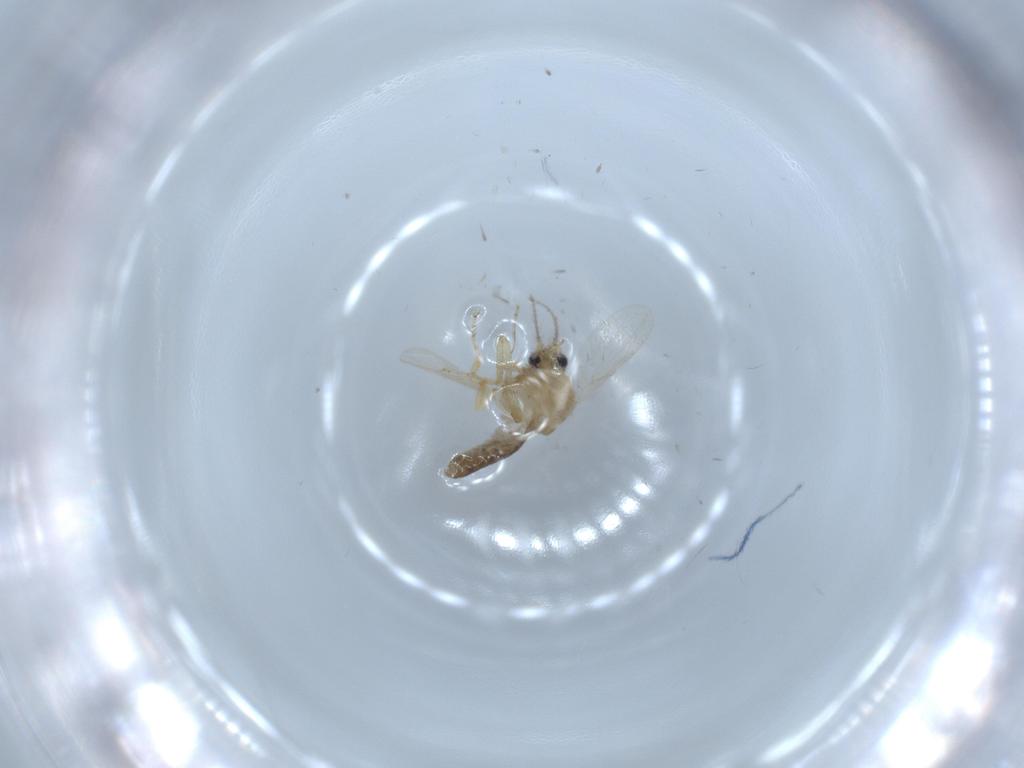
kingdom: Animalia
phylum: Arthropoda
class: Insecta
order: Diptera
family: Ceratopogonidae
